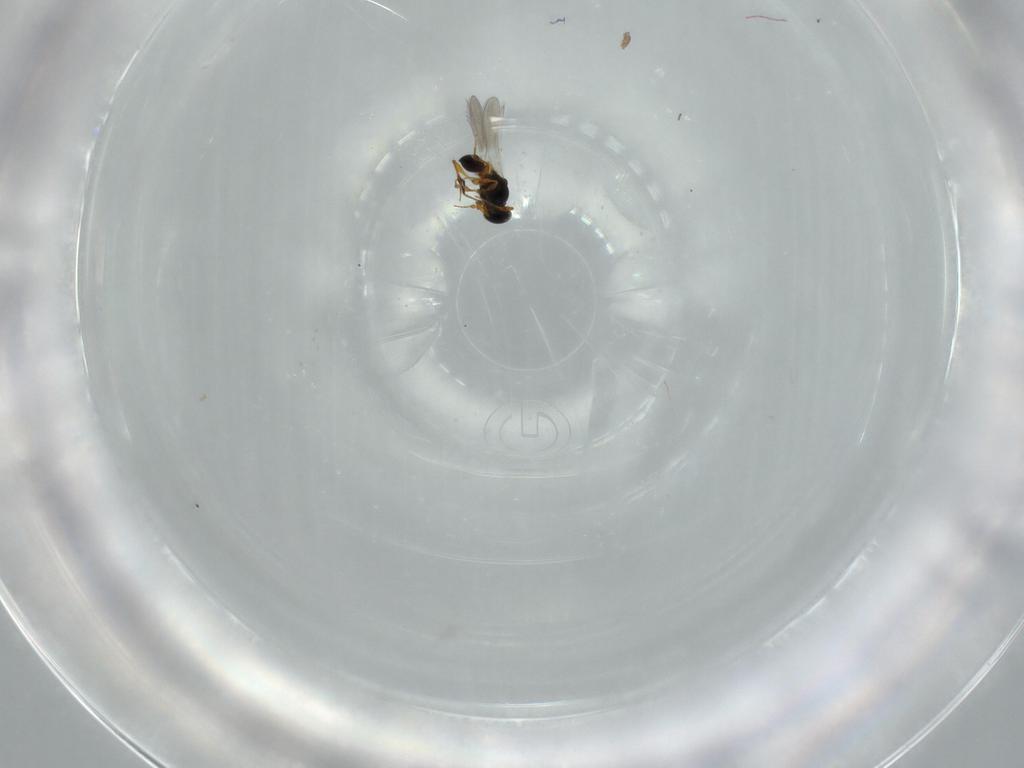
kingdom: Animalia
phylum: Arthropoda
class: Insecta
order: Hymenoptera
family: Platygastridae
